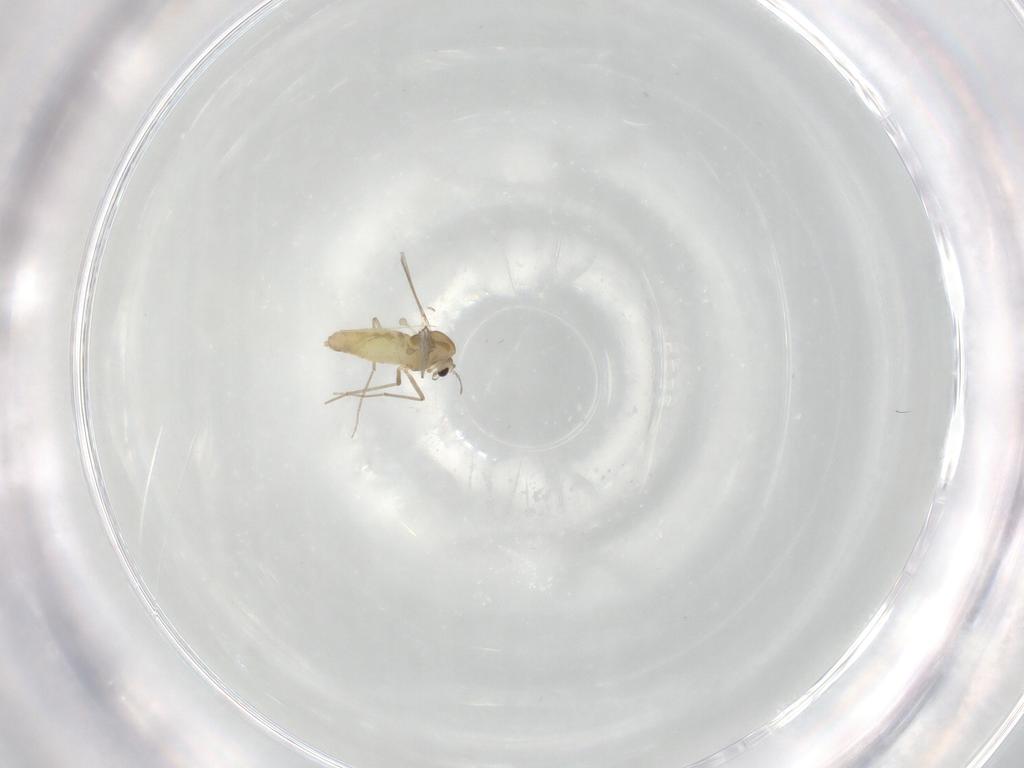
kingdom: Animalia
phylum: Arthropoda
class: Insecta
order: Diptera
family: Chironomidae
